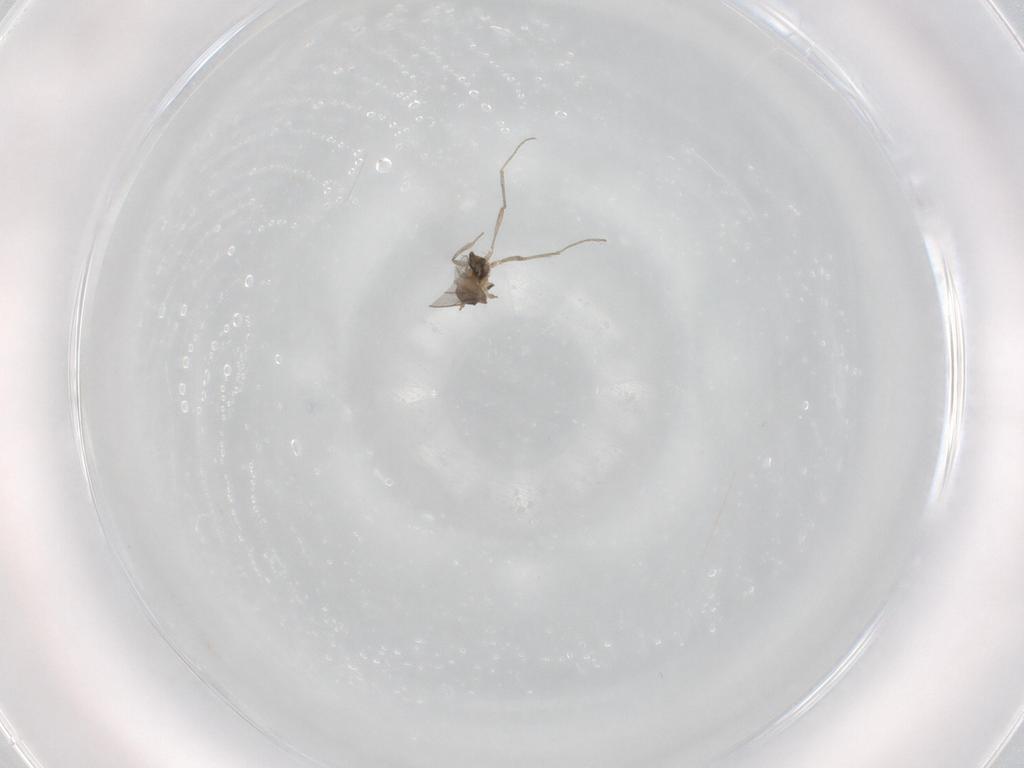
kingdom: Animalia
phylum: Arthropoda
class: Insecta
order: Diptera
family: Cecidomyiidae
